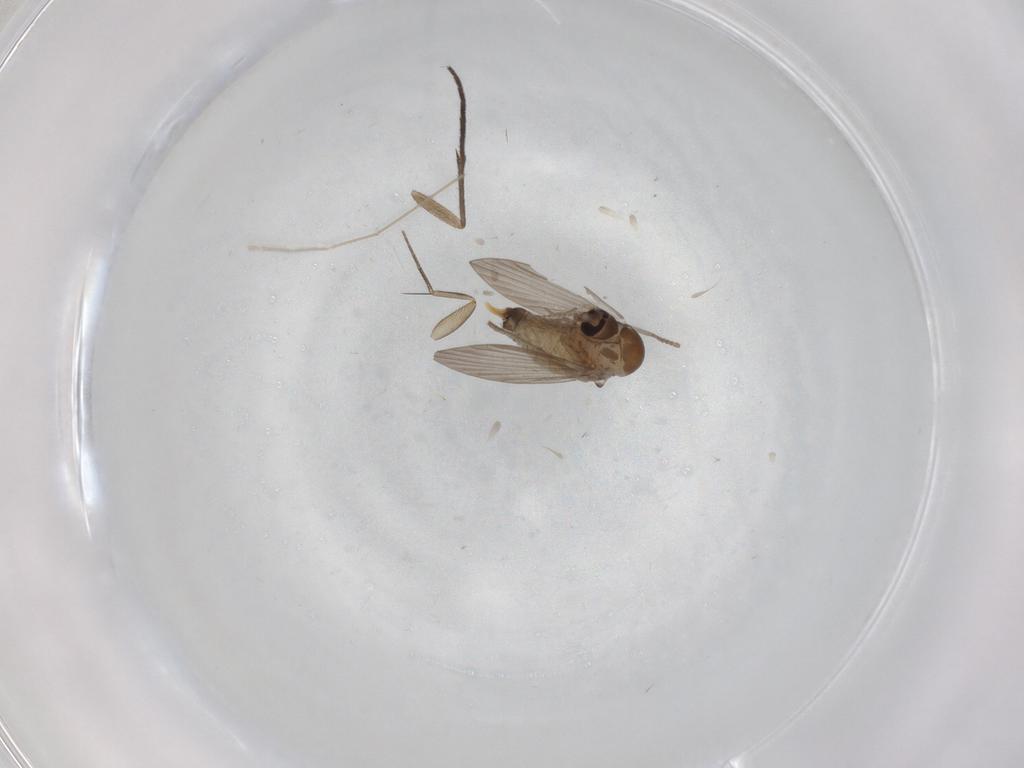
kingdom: Animalia
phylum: Arthropoda
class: Insecta
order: Diptera
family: Psychodidae
